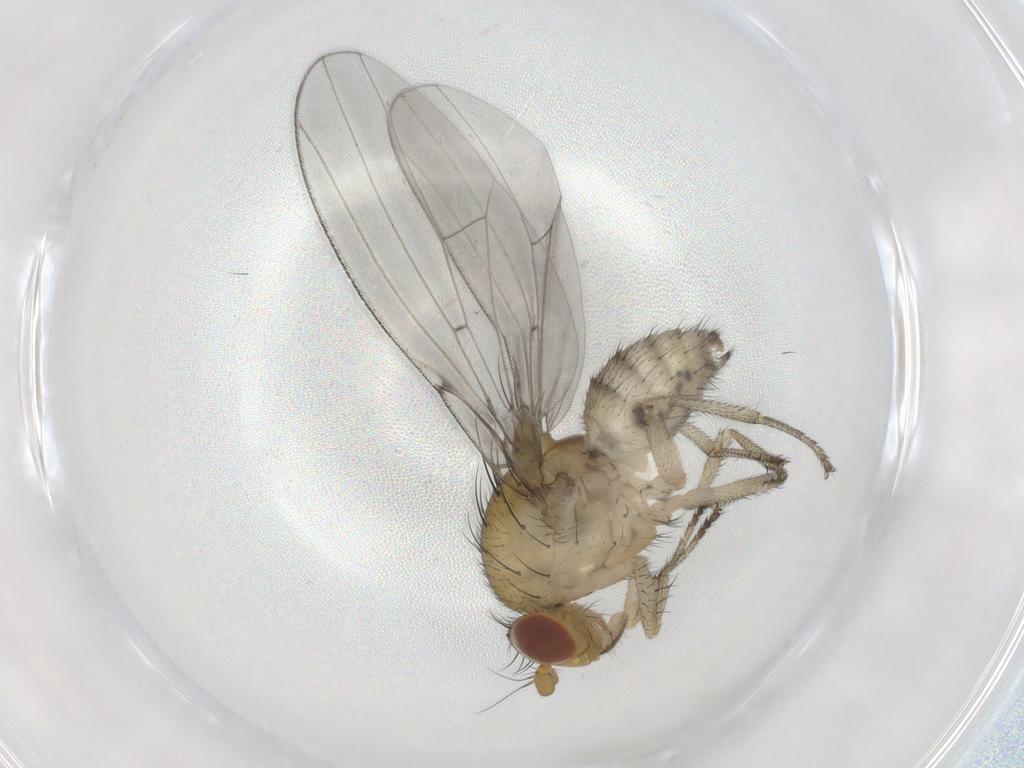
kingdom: Animalia
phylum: Arthropoda
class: Insecta
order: Diptera
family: Limoniidae
